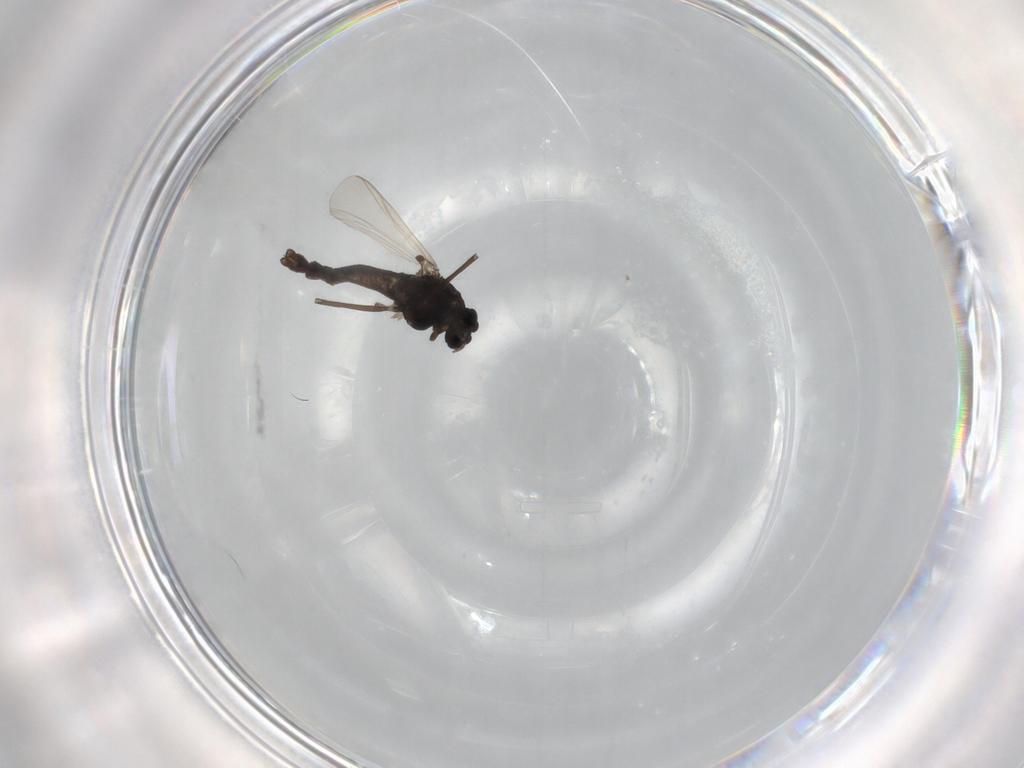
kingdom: Animalia
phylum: Arthropoda
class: Insecta
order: Diptera
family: Chironomidae
